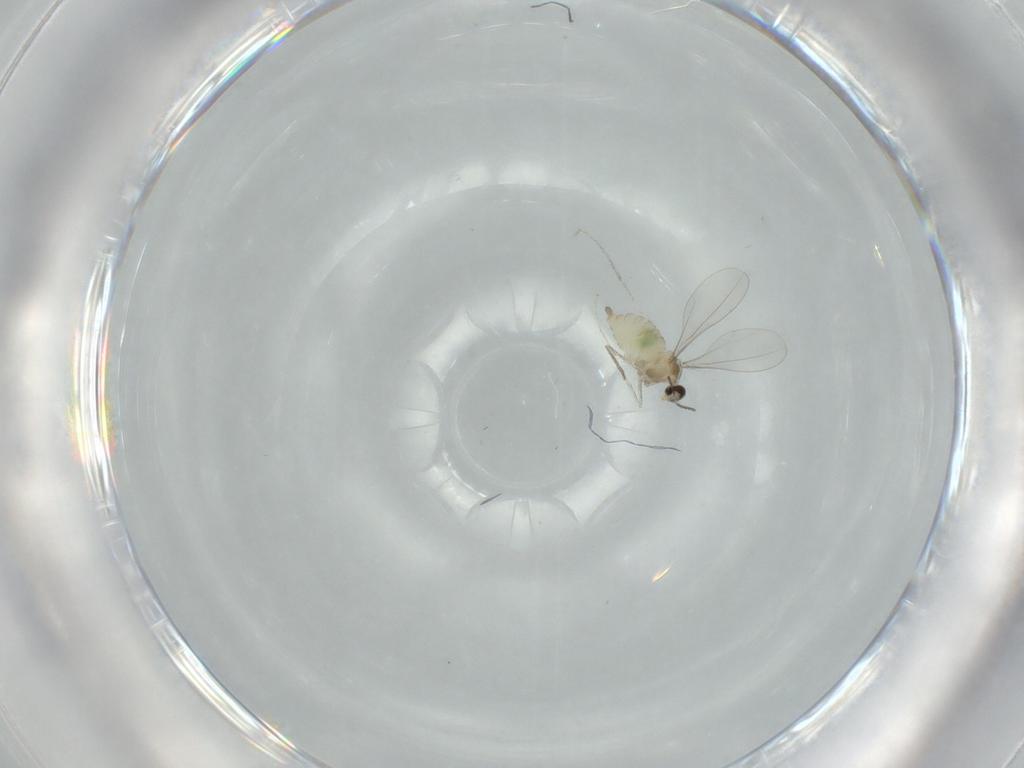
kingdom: Animalia
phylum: Arthropoda
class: Insecta
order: Diptera
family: Cecidomyiidae
